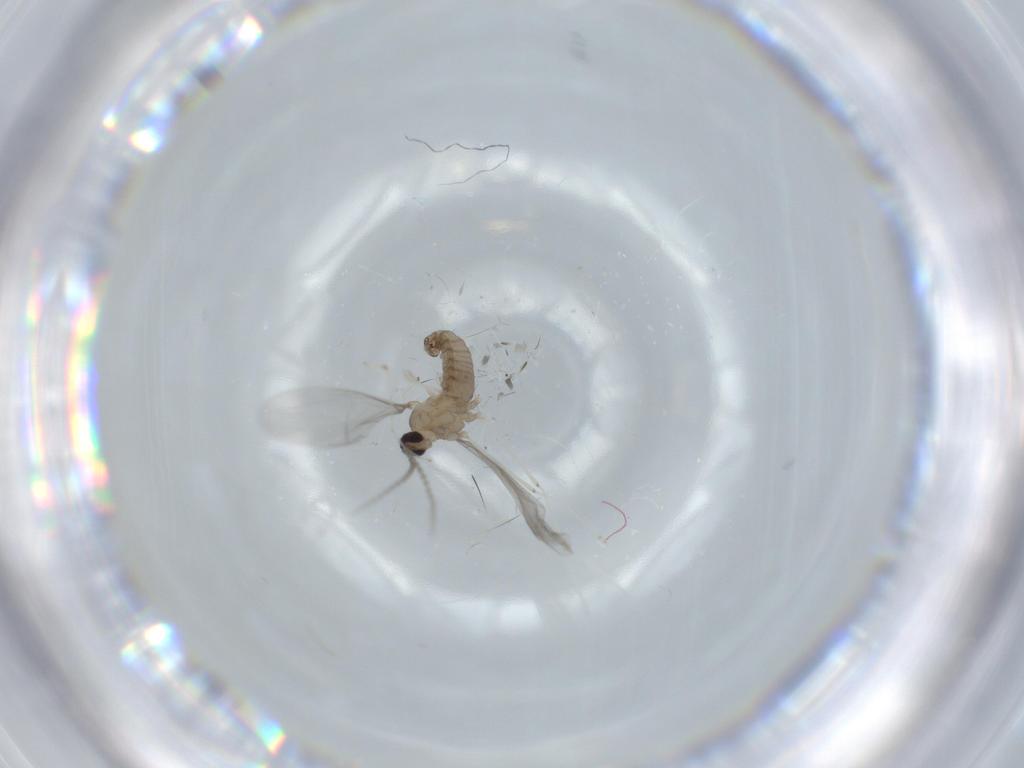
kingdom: Animalia
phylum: Arthropoda
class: Insecta
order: Diptera
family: Cecidomyiidae
